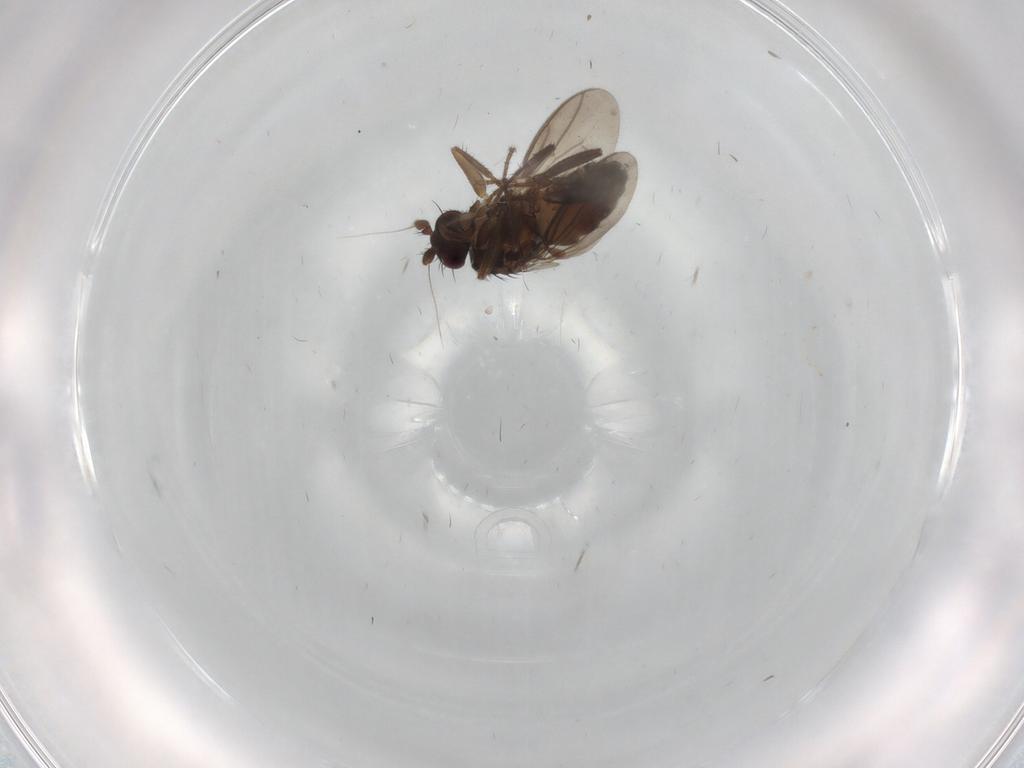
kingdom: Animalia
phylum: Arthropoda
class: Insecta
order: Diptera
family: Sphaeroceridae
